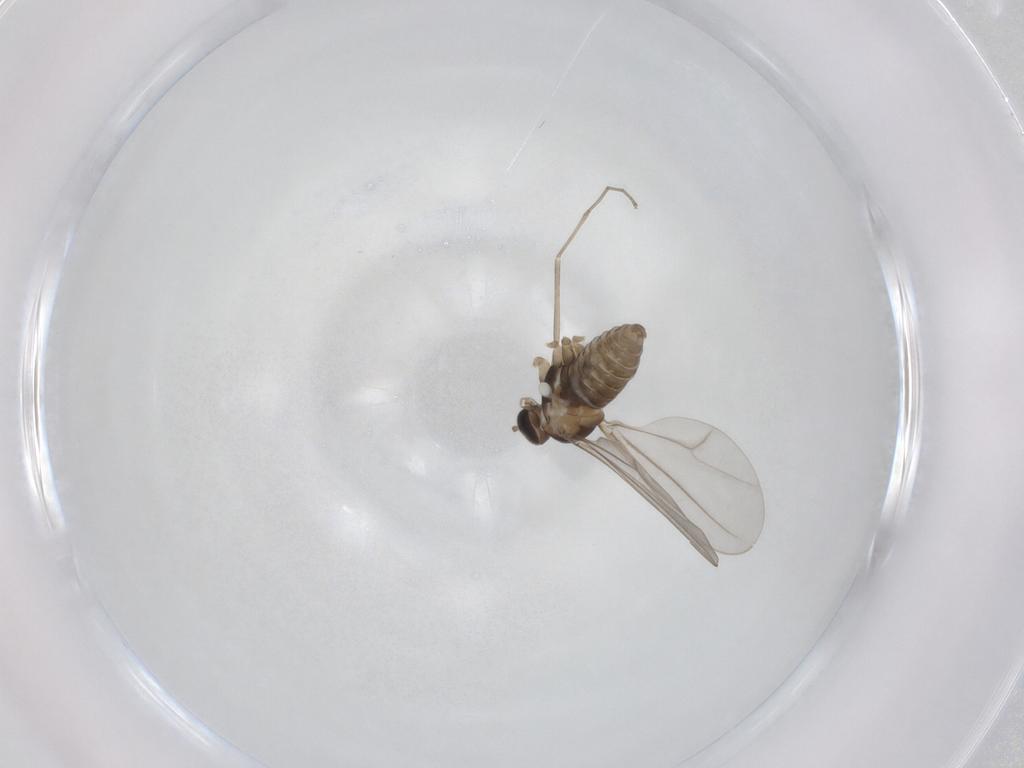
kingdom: Animalia
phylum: Arthropoda
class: Insecta
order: Diptera
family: Cecidomyiidae
